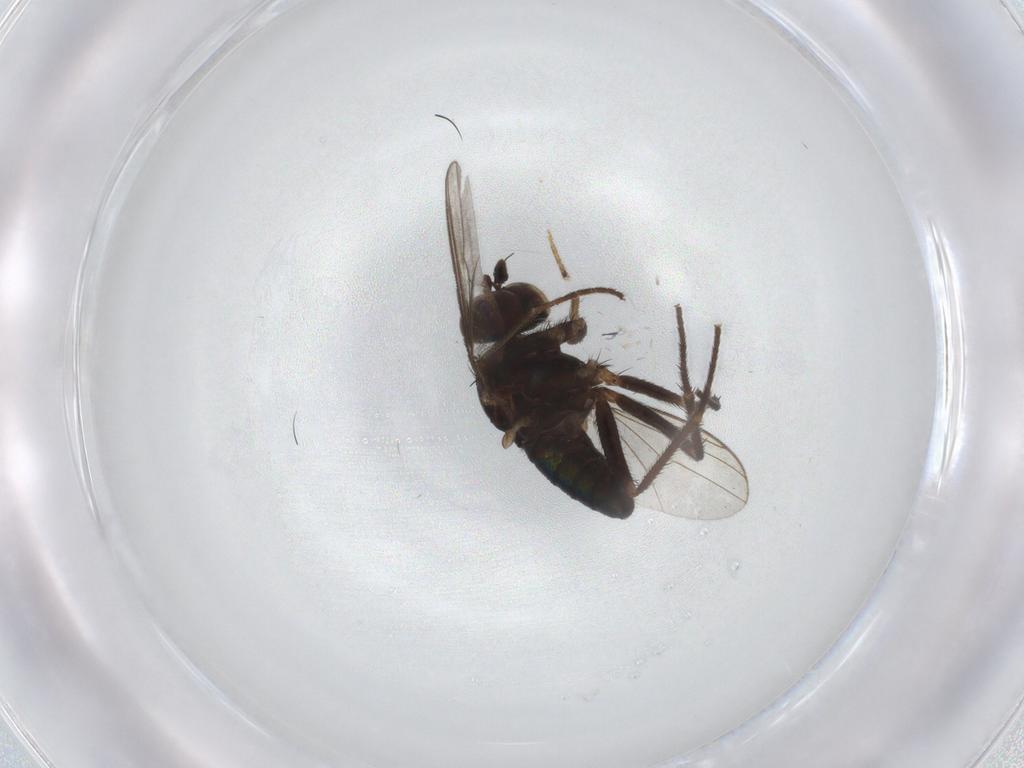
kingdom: Animalia
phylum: Arthropoda
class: Insecta
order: Diptera
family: Dolichopodidae
